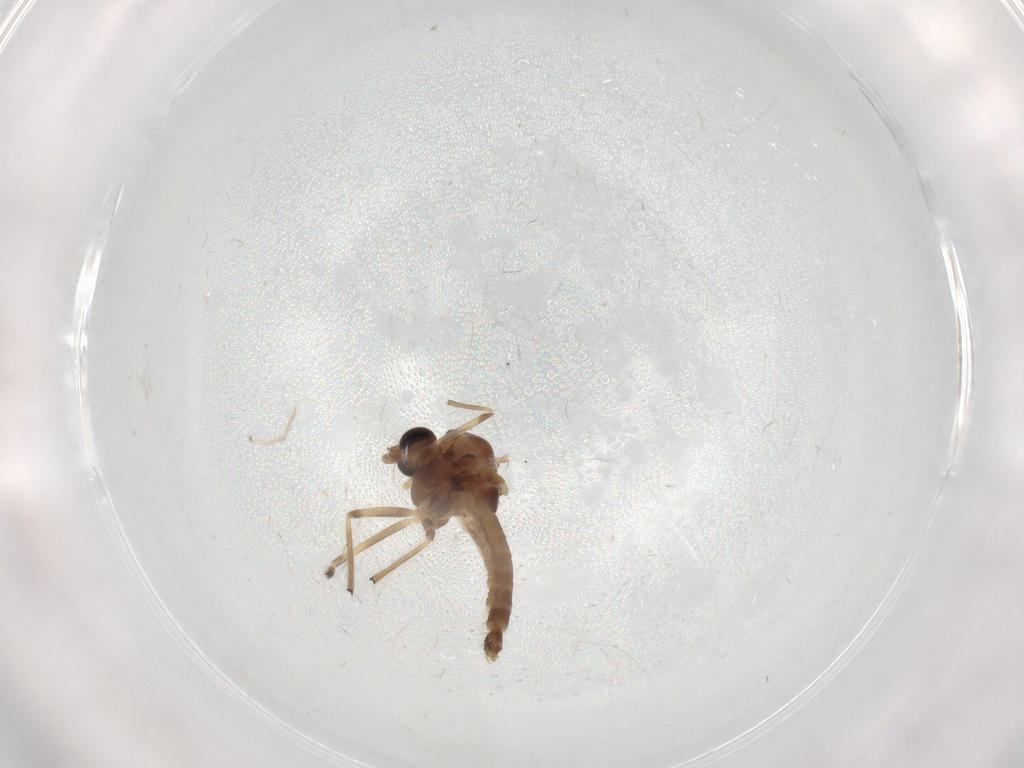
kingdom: Animalia
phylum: Arthropoda
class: Insecta
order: Diptera
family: Chironomidae
